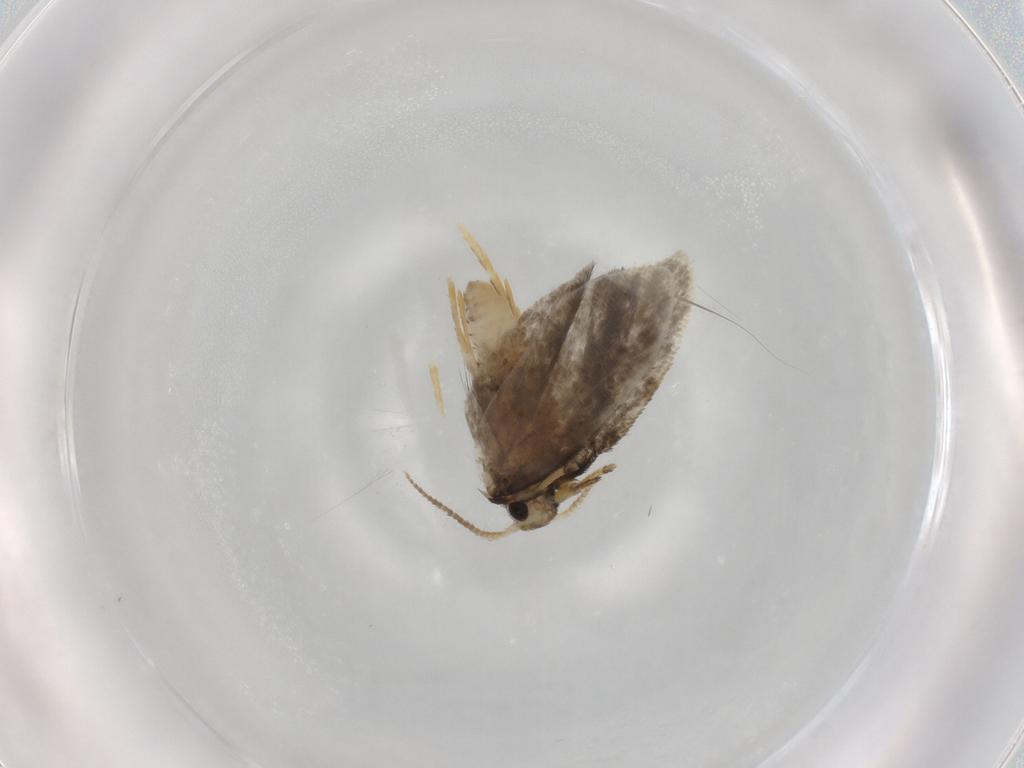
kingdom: Animalia
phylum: Arthropoda
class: Insecta
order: Lepidoptera
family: Psychidae
